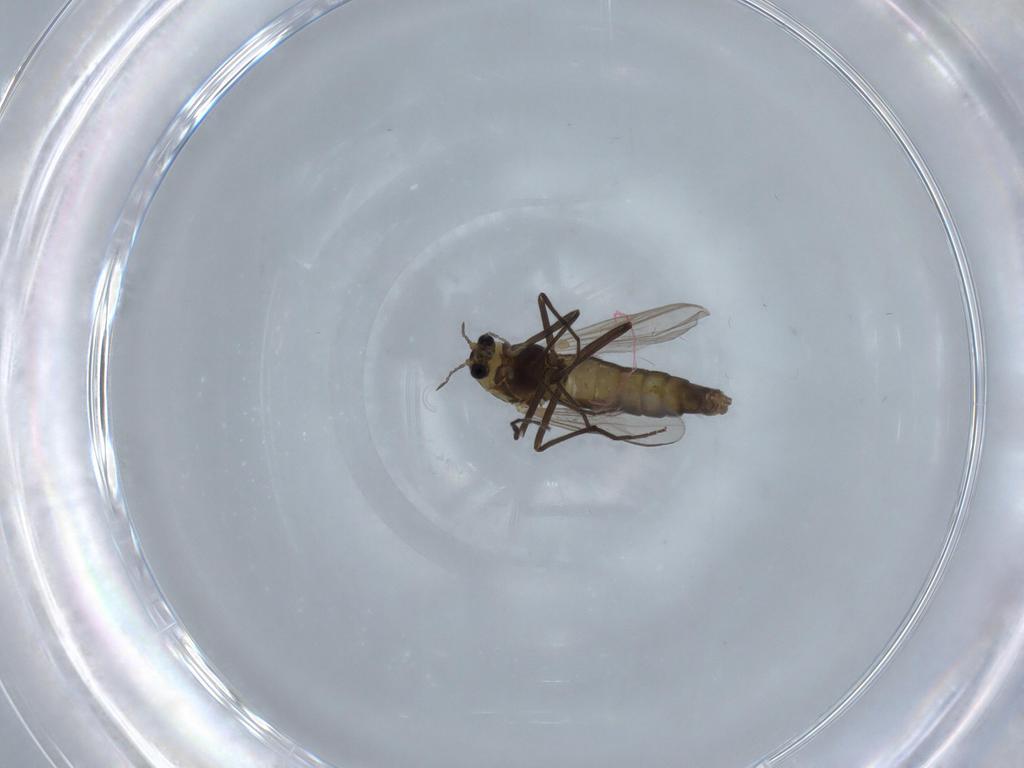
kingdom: Animalia
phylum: Arthropoda
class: Insecta
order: Diptera
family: Chironomidae
